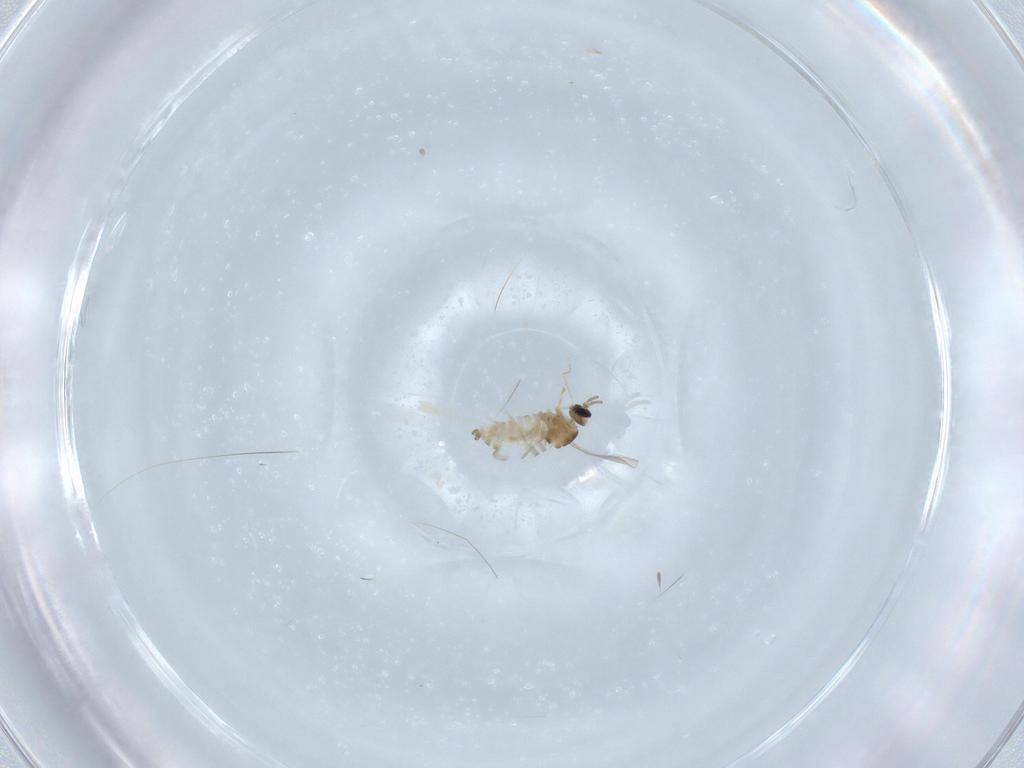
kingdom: Animalia
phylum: Arthropoda
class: Insecta
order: Diptera
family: Cecidomyiidae
